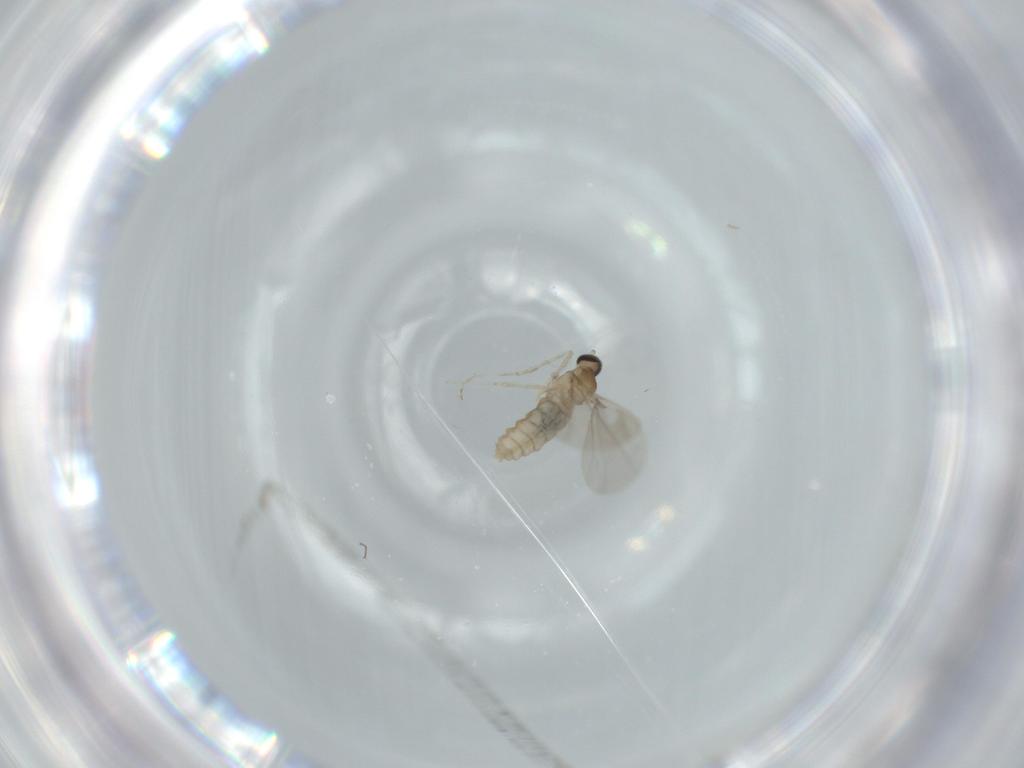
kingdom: Animalia
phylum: Arthropoda
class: Insecta
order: Diptera
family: Cecidomyiidae
